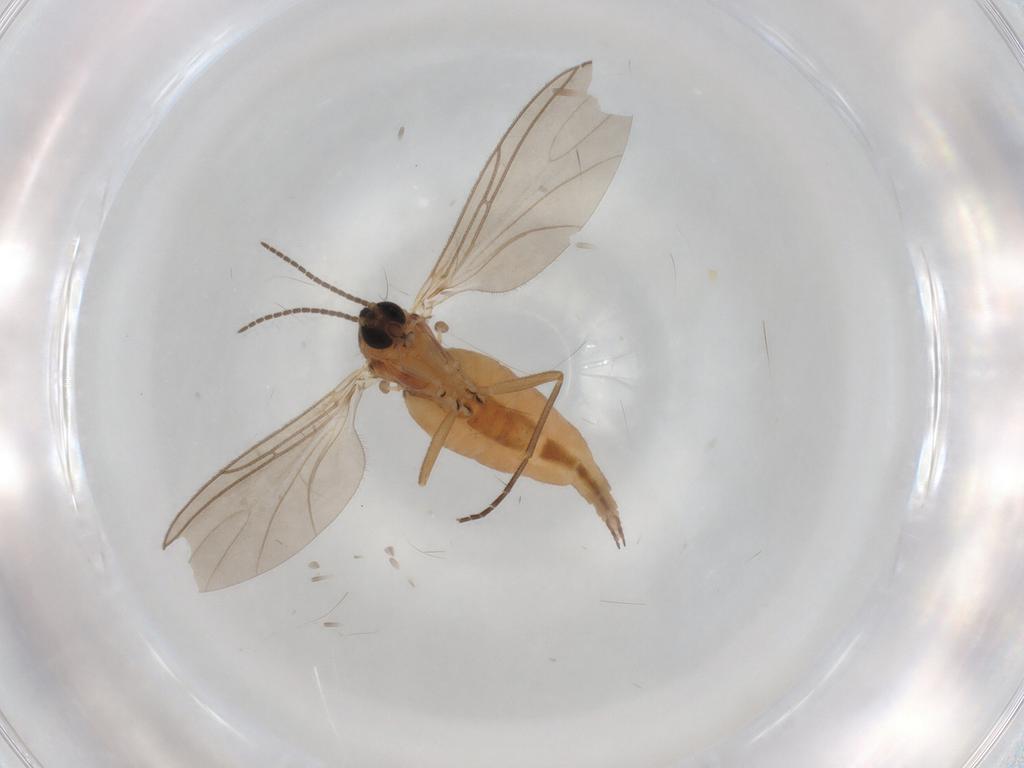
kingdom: Animalia
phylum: Arthropoda
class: Insecta
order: Diptera
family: Sciaridae
